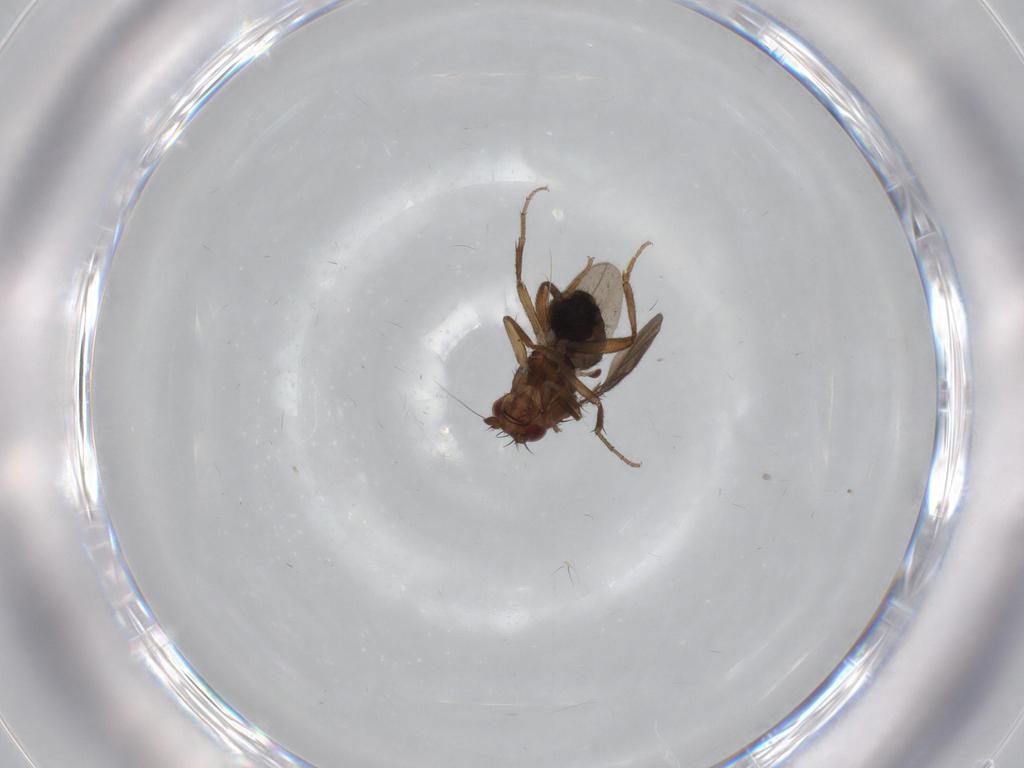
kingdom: Animalia
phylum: Arthropoda
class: Insecta
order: Diptera
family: Sphaeroceridae
